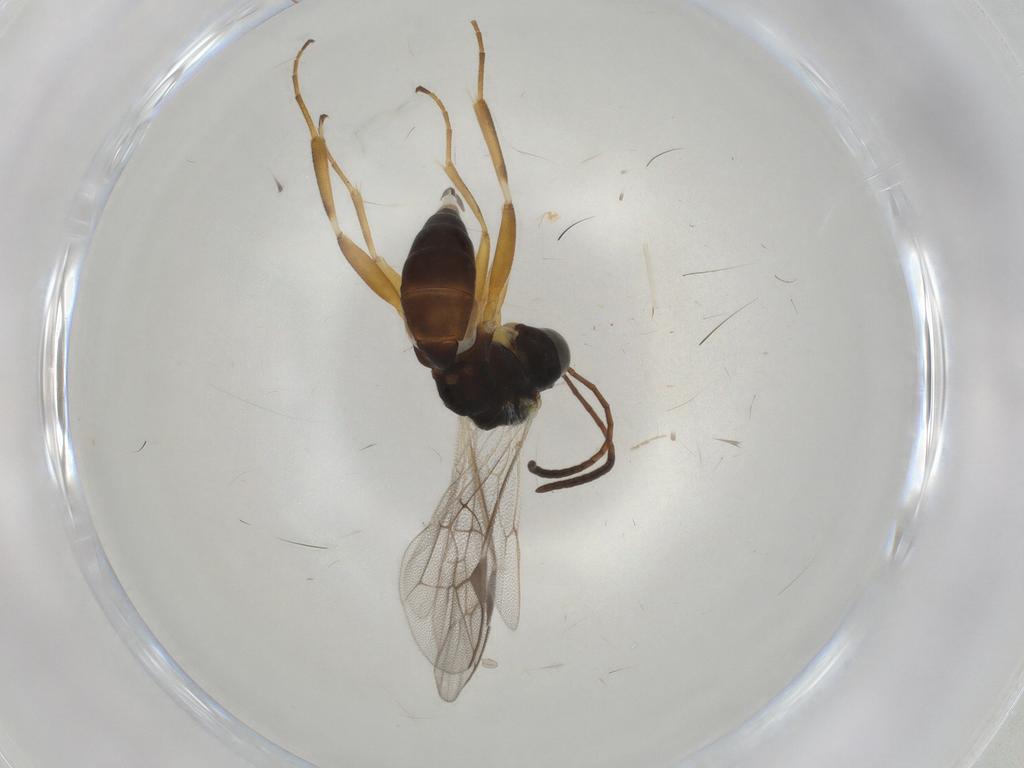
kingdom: Animalia
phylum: Arthropoda
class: Insecta
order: Hymenoptera
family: Ichneumonidae
